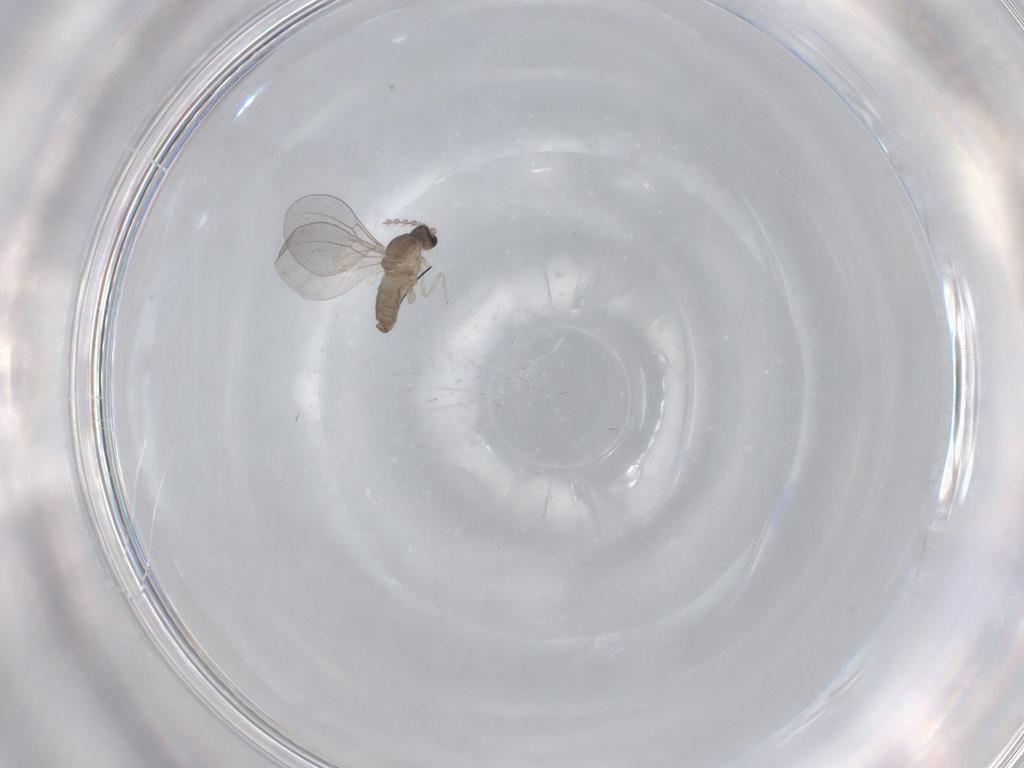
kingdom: Animalia
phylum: Arthropoda
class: Insecta
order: Diptera
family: Cecidomyiidae
